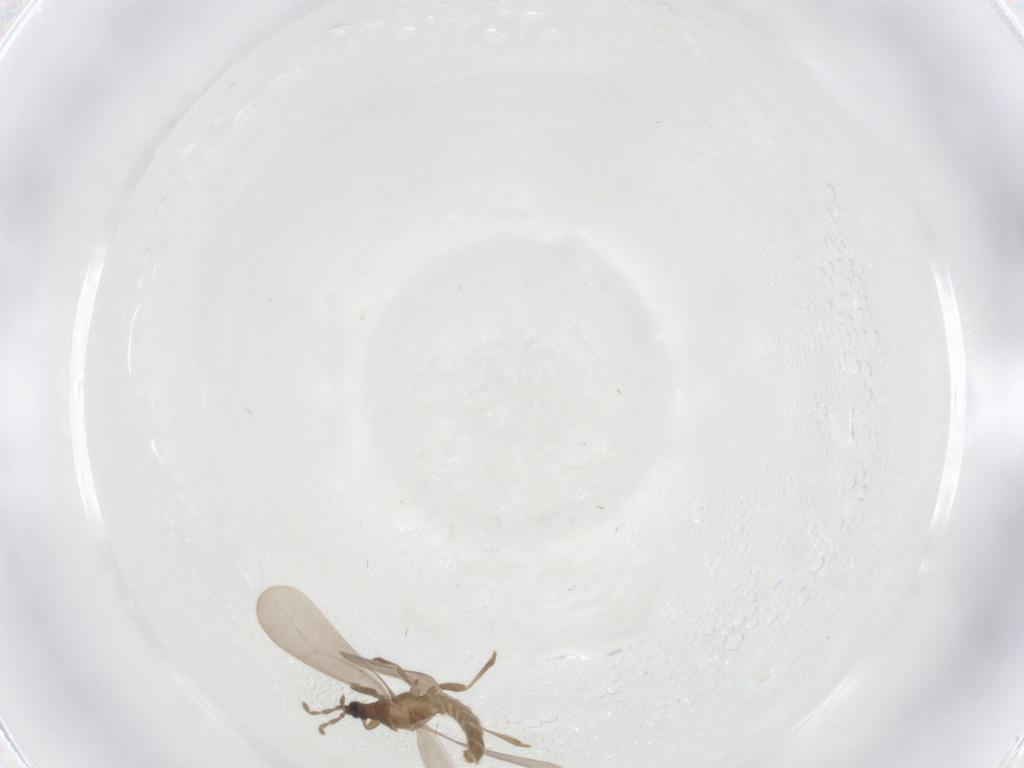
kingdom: Animalia
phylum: Arthropoda
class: Insecta
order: Hemiptera
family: Enicocephalidae
